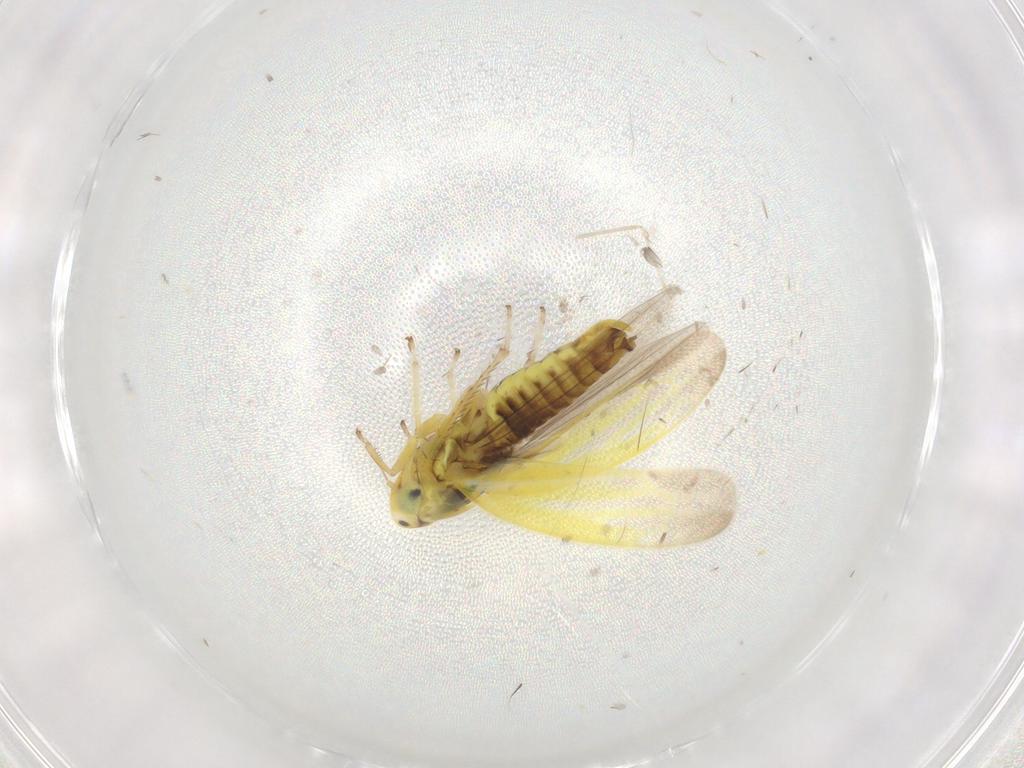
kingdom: Animalia
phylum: Arthropoda
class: Insecta
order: Hemiptera
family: Cicadellidae
